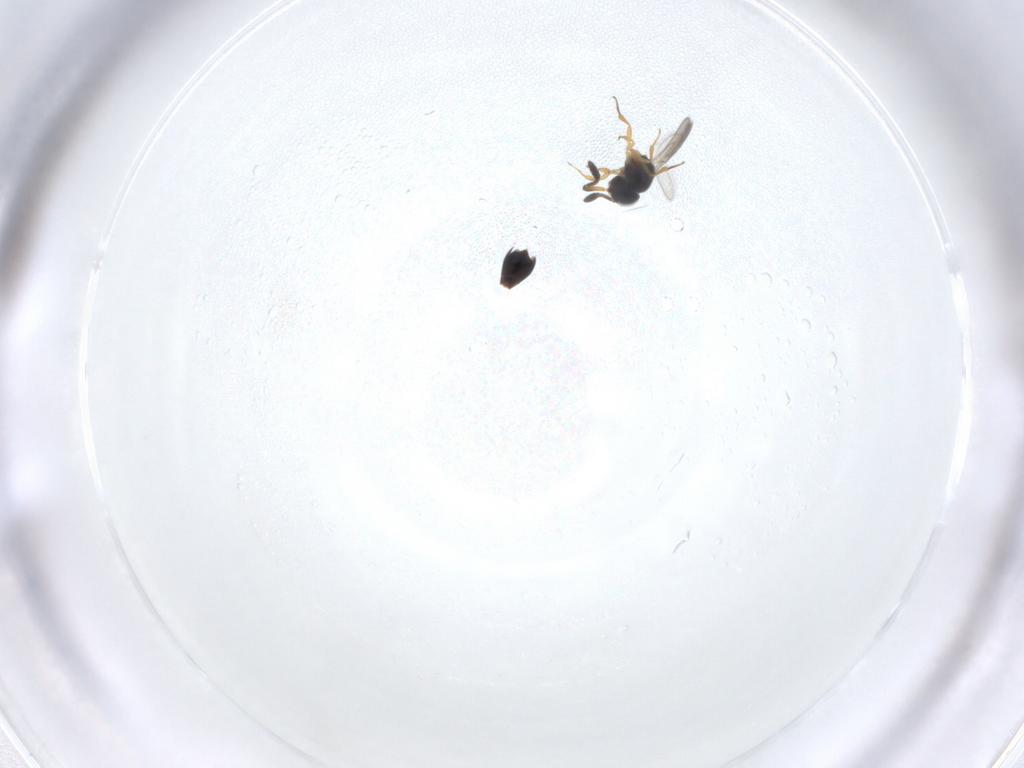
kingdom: Animalia
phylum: Arthropoda
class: Insecta
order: Hymenoptera
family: Scelionidae
